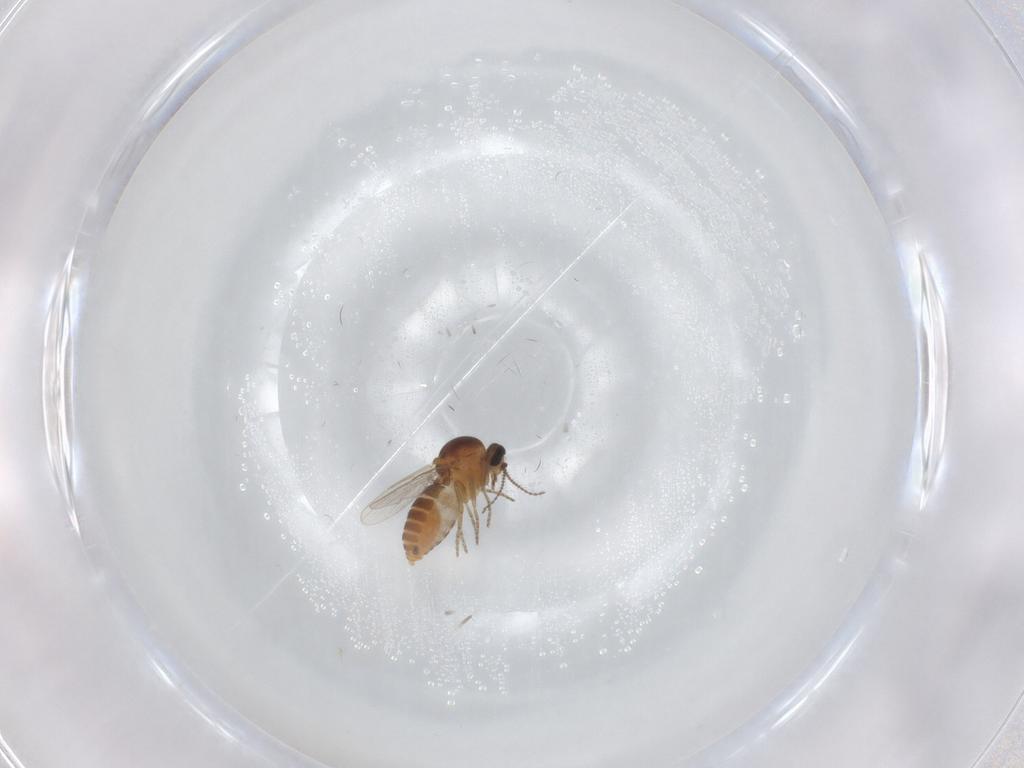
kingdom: Animalia
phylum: Arthropoda
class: Insecta
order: Diptera
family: Ceratopogonidae
